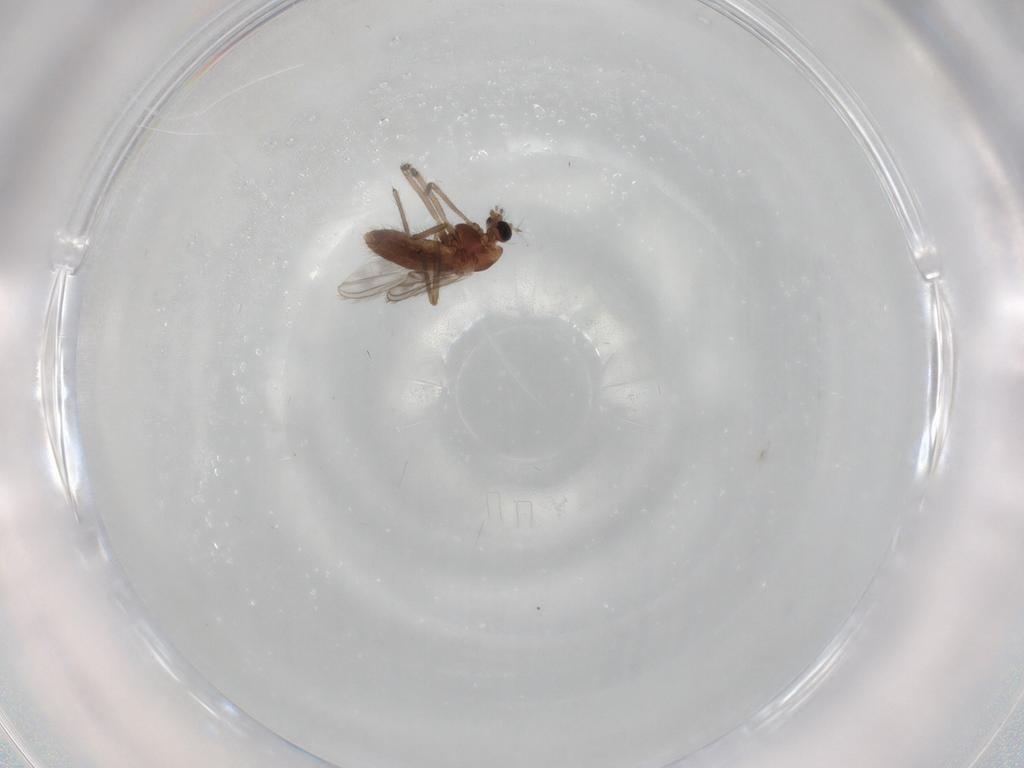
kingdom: Animalia
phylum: Arthropoda
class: Insecta
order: Diptera
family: Chironomidae
